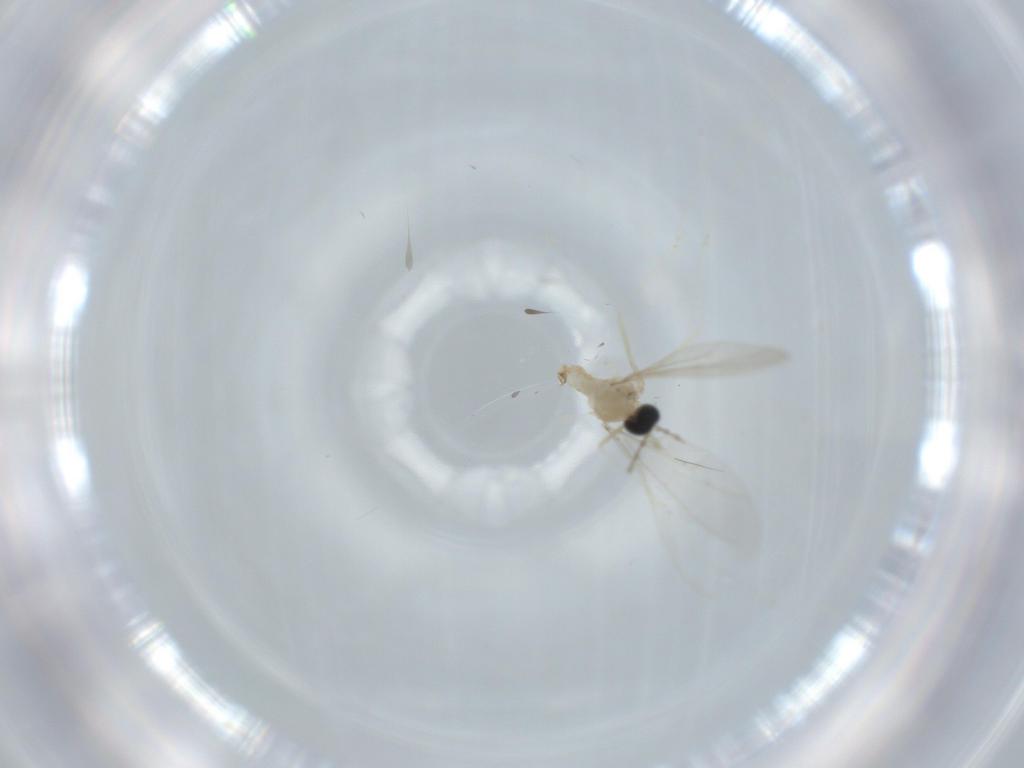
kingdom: Animalia
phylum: Arthropoda
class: Insecta
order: Diptera
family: Cecidomyiidae
